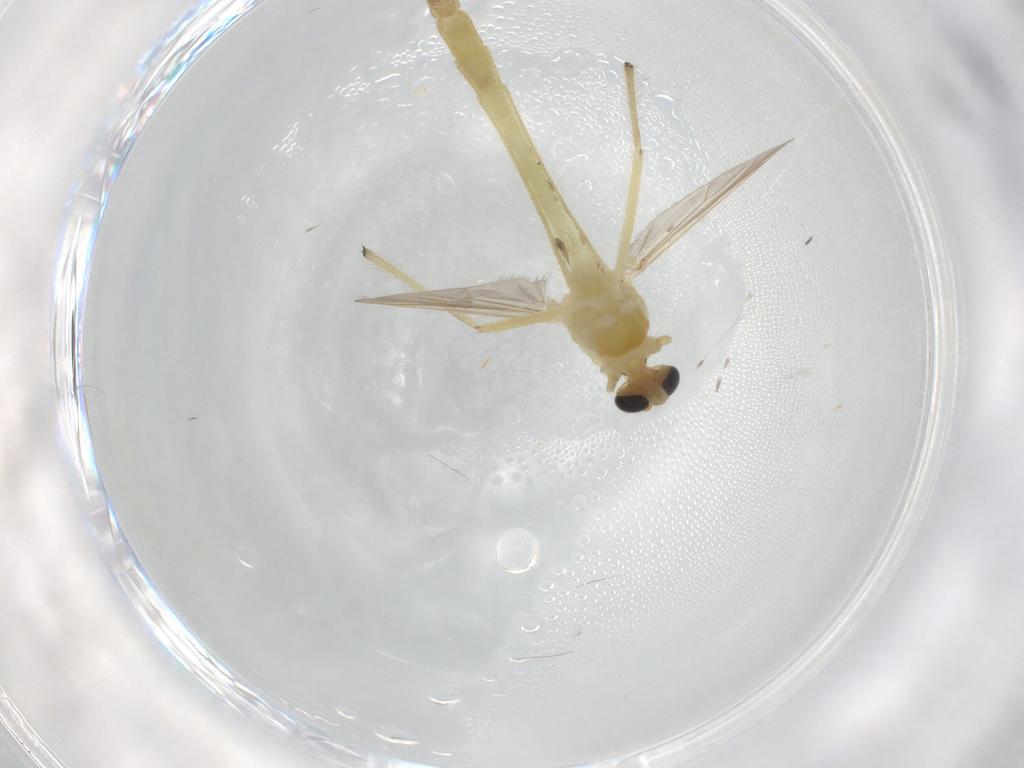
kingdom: Animalia
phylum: Arthropoda
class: Insecta
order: Diptera
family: Chironomidae
